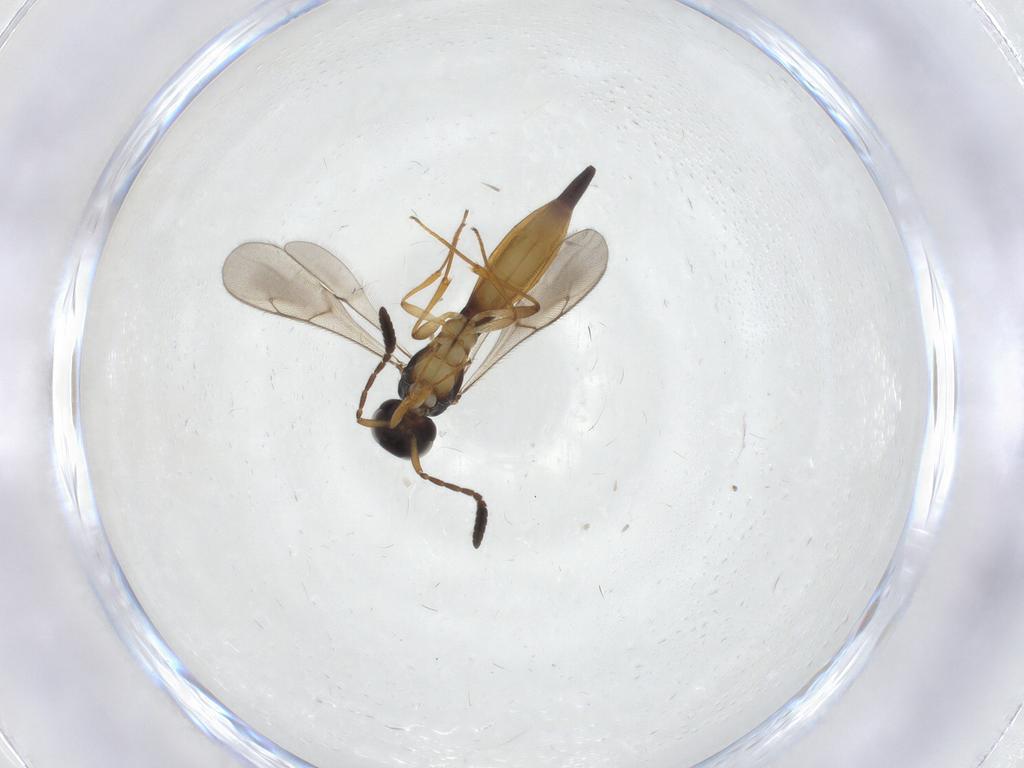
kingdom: Animalia
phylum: Arthropoda
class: Insecta
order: Hymenoptera
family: Scelionidae
